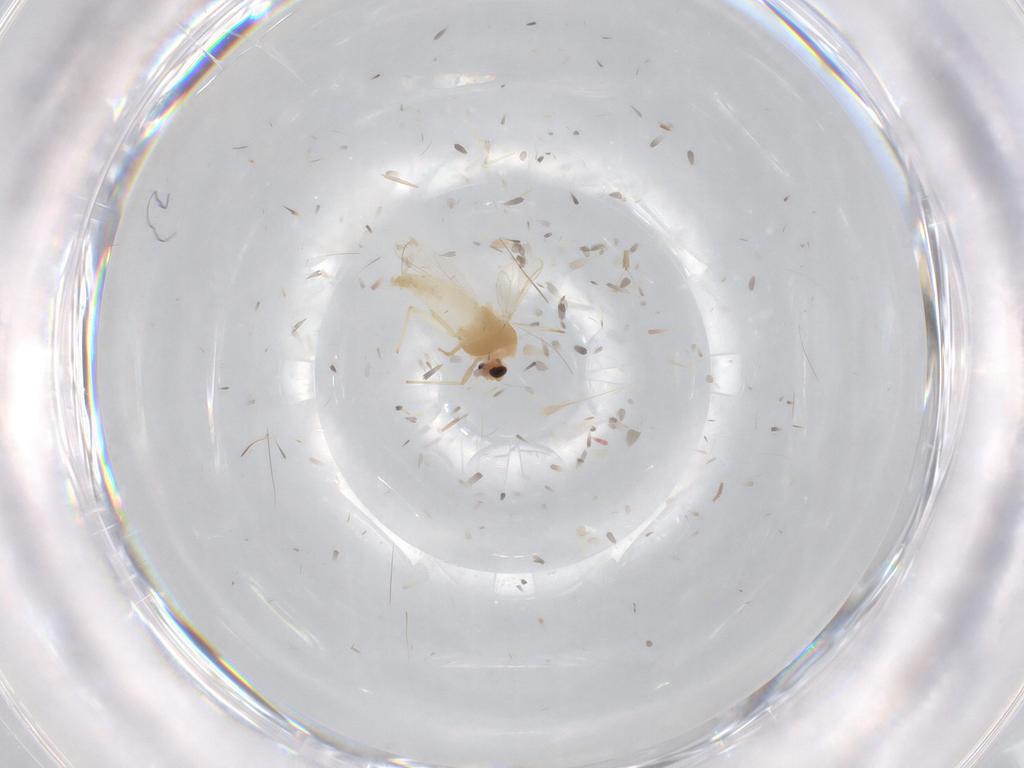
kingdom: Animalia
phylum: Arthropoda
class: Insecta
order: Diptera
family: Chironomidae
